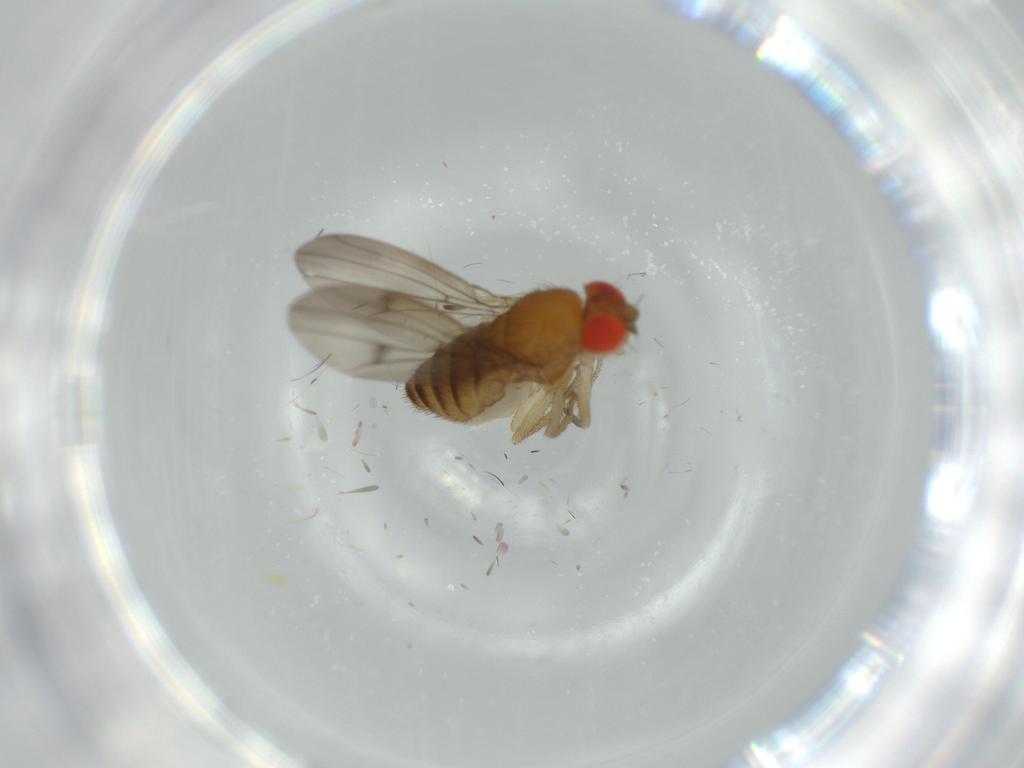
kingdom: Animalia
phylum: Arthropoda
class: Insecta
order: Diptera
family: Drosophilidae
